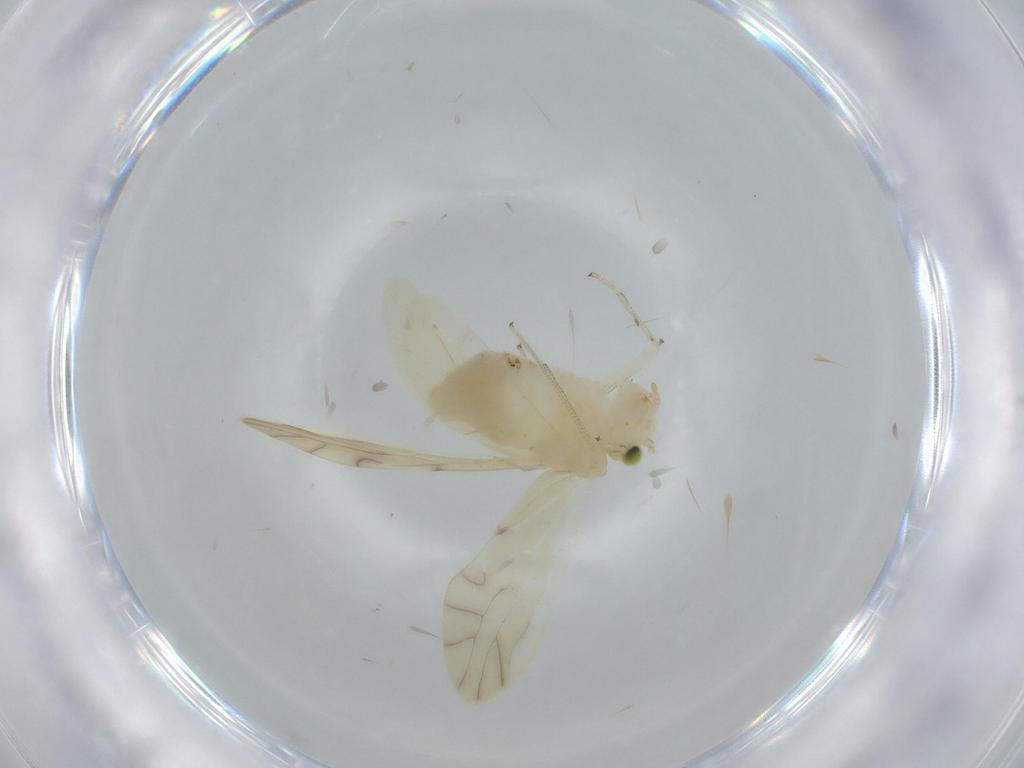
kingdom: Animalia
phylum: Arthropoda
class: Insecta
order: Psocodea
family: Caeciliusidae
